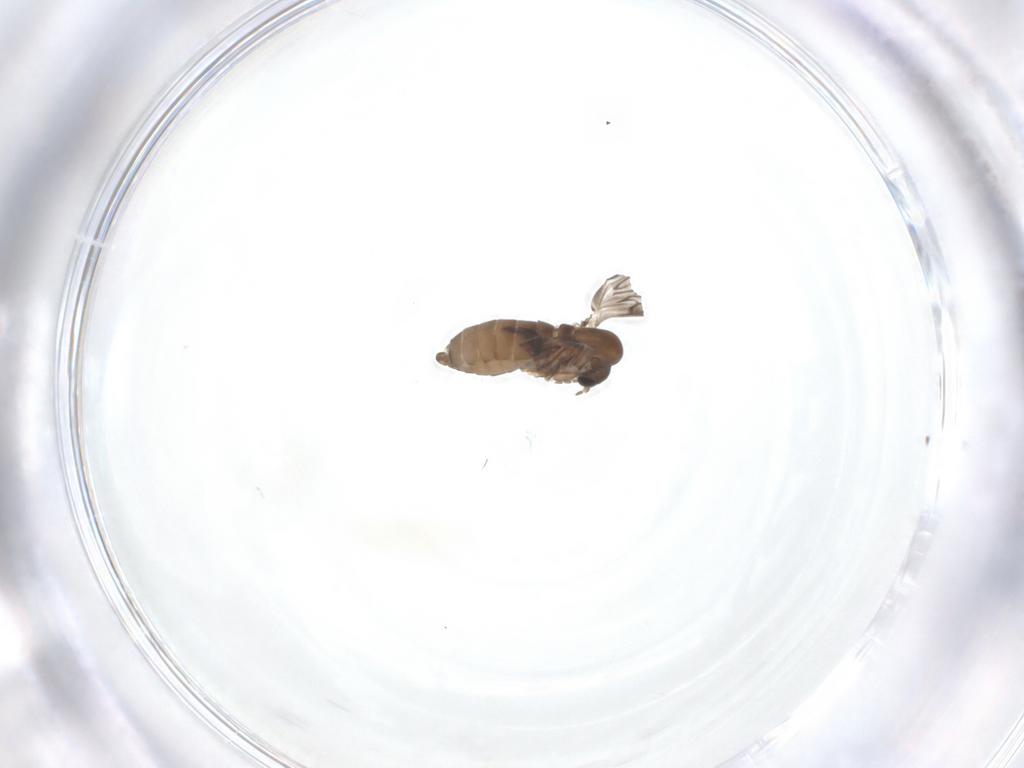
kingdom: Animalia
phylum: Arthropoda
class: Insecta
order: Diptera
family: Psychodidae
